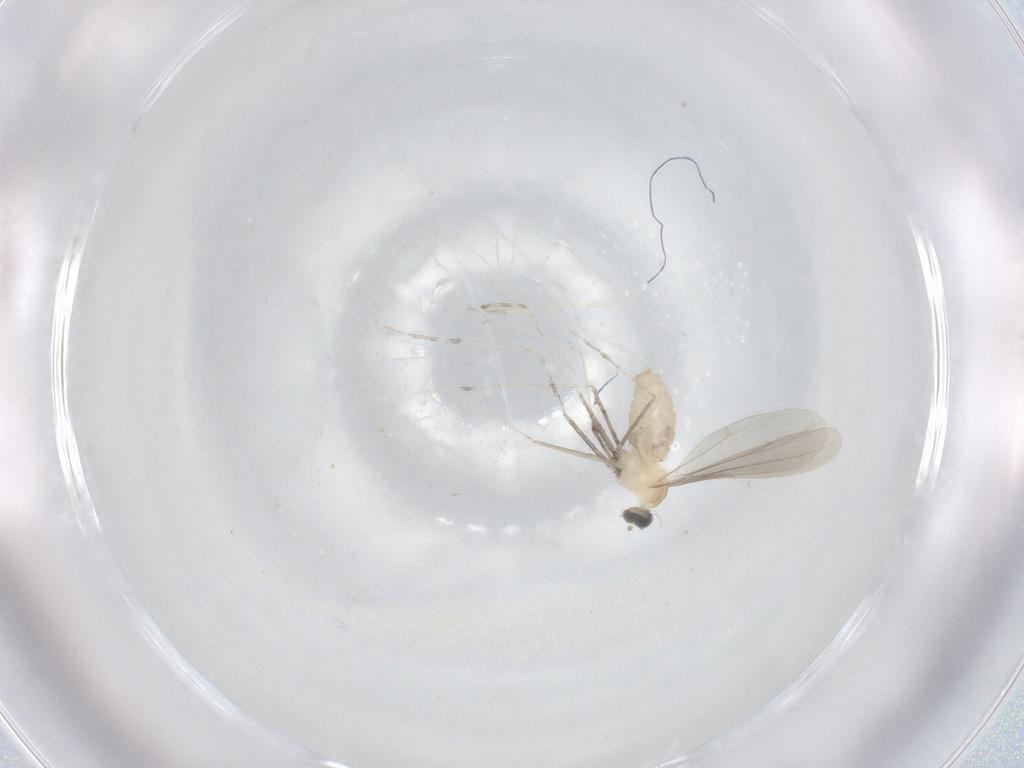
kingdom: Animalia
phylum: Arthropoda
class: Insecta
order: Diptera
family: Cecidomyiidae
